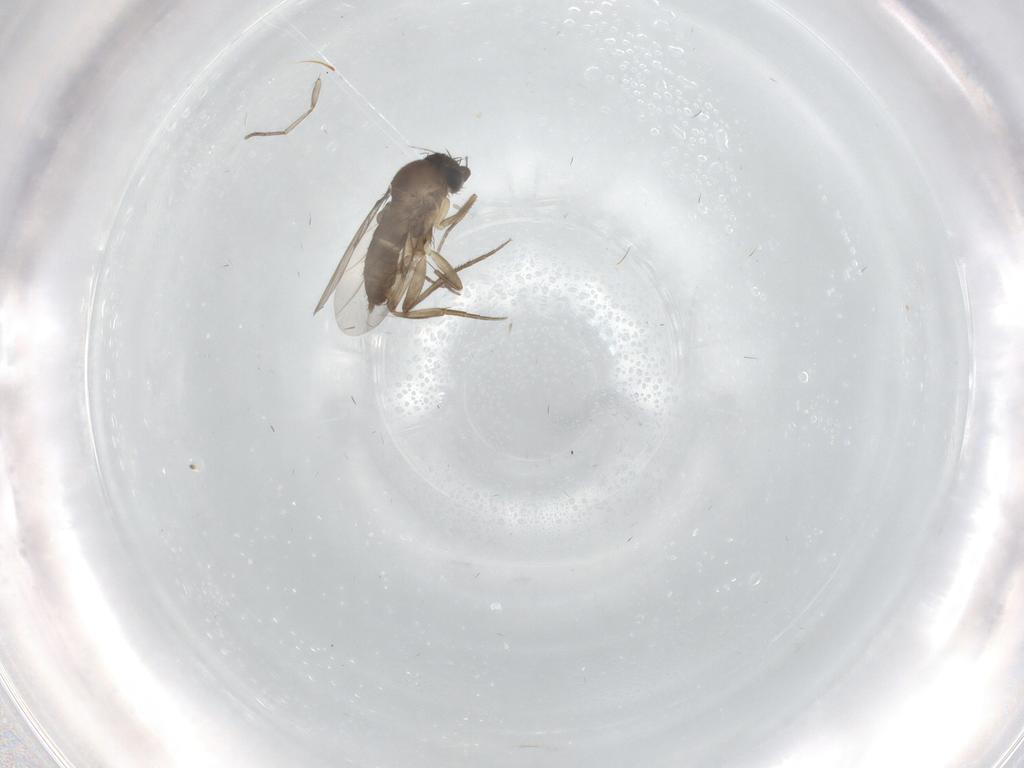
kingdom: Animalia
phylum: Arthropoda
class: Insecta
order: Diptera
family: Phoridae
